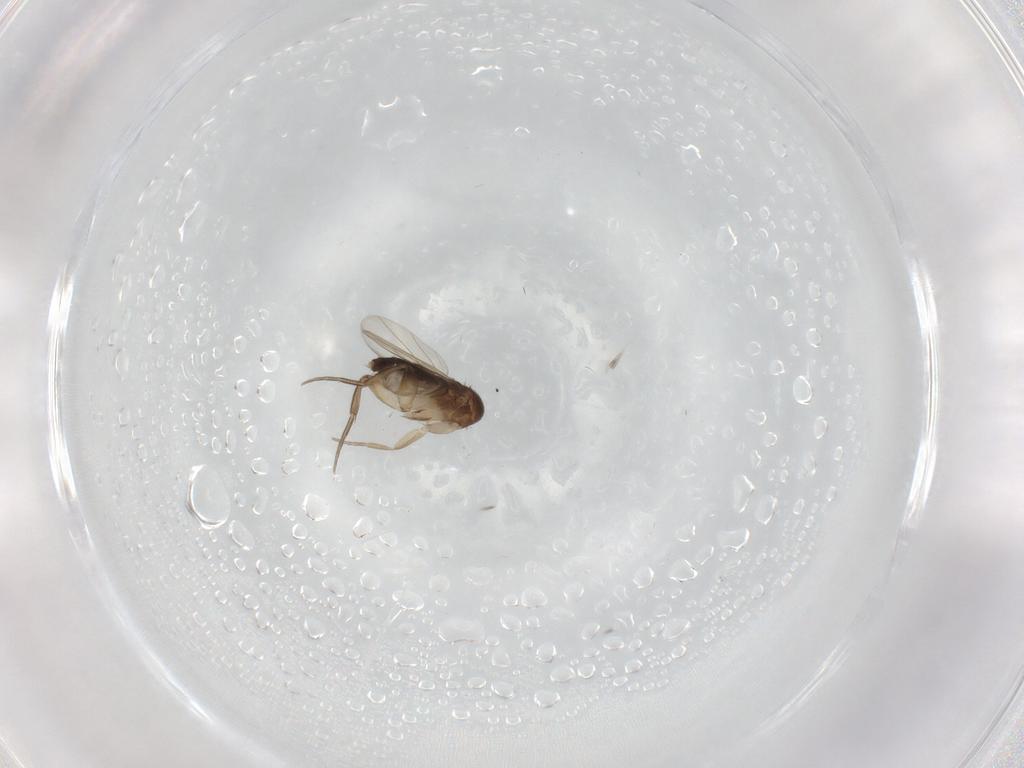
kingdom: Animalia
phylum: Arthropoda
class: Insecta
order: Diptera
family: Phoridae
